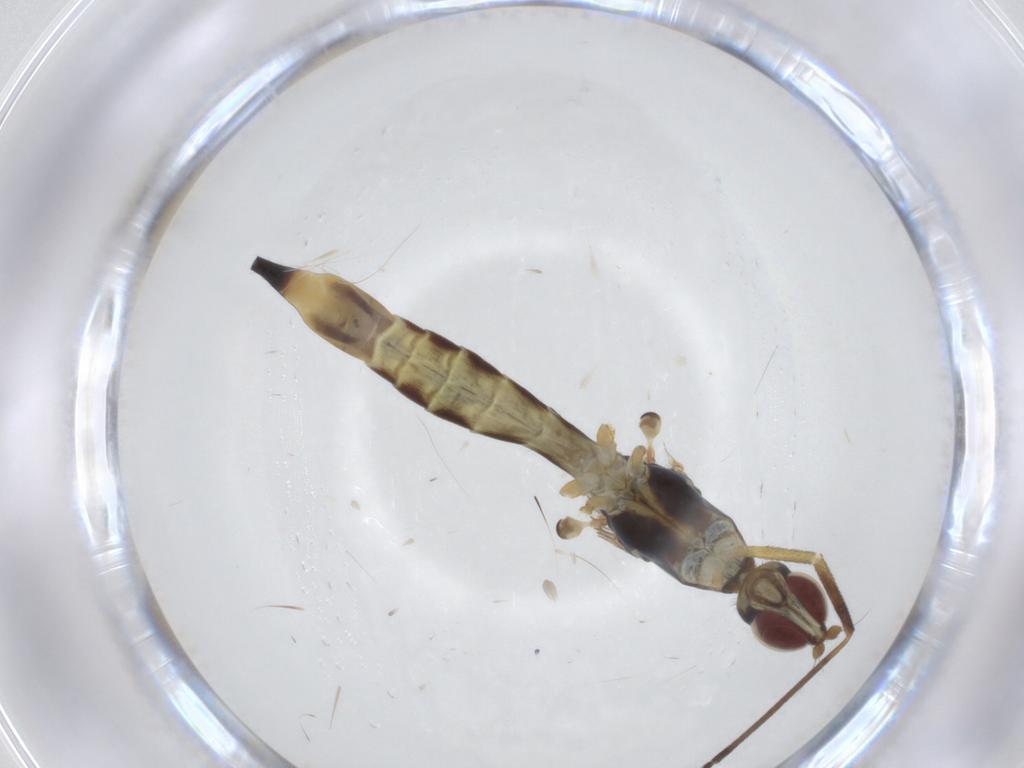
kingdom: Animalia
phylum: Arthropoda
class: Insecta
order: Diptera
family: Micropezidae
